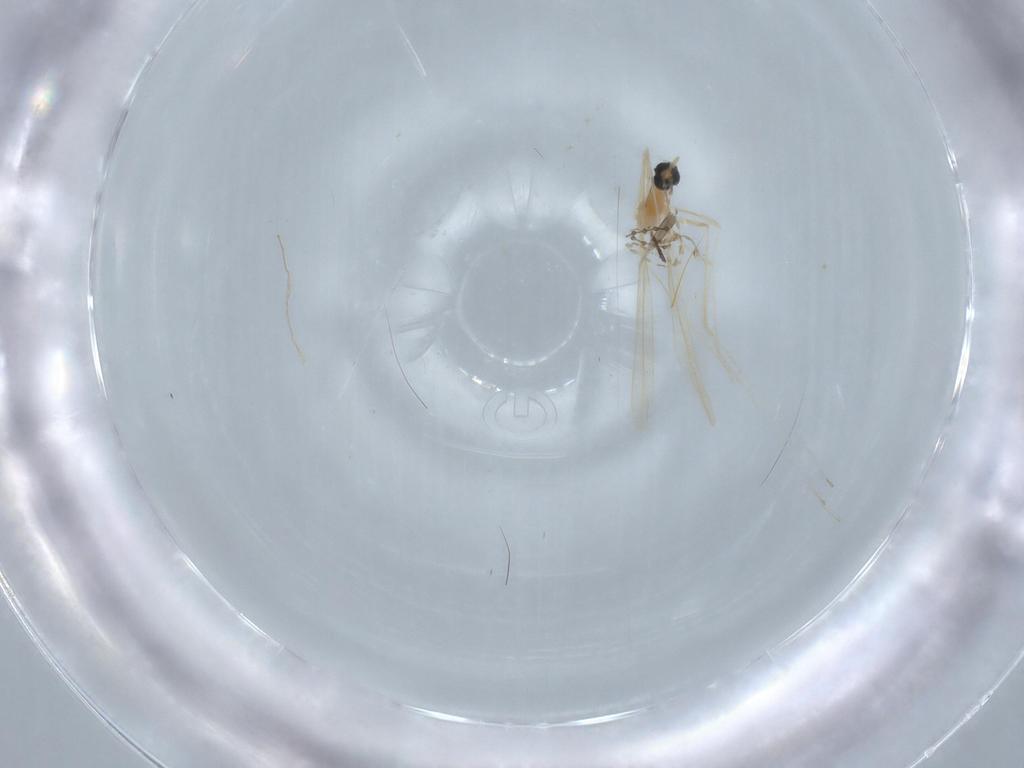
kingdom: Animalia
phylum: Arthropoda
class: Insecta
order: Diptera
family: Cecidomyiidae
